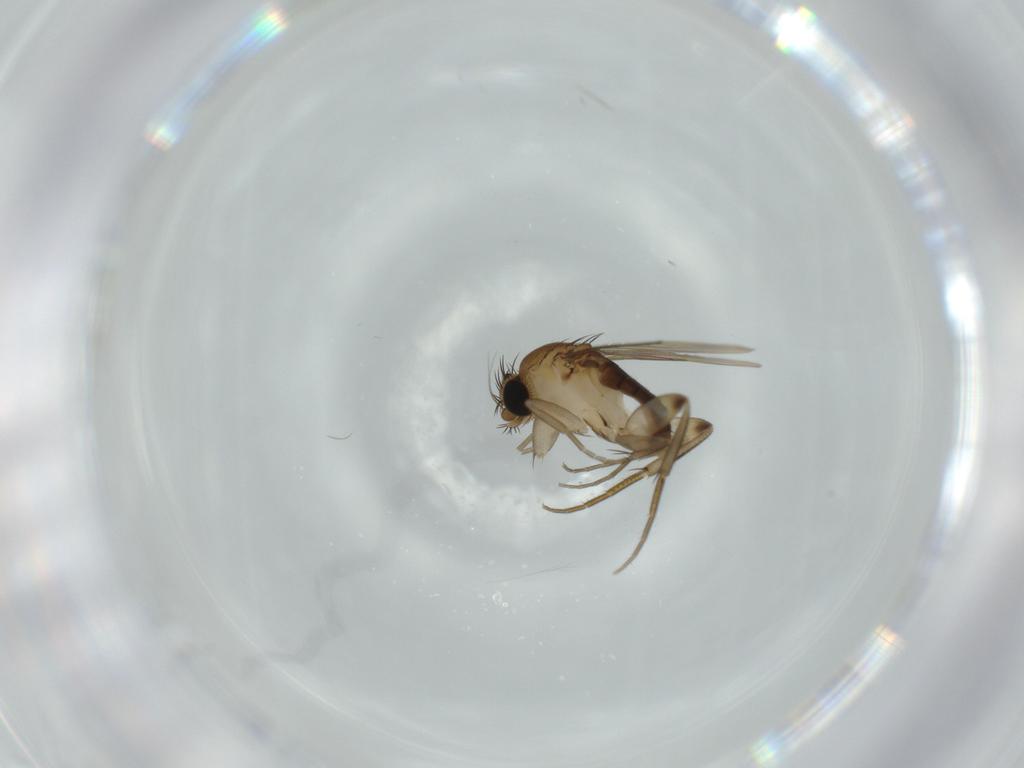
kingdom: Animalia
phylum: Arthropoda
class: Insecta
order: Diptera
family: Phoridae
